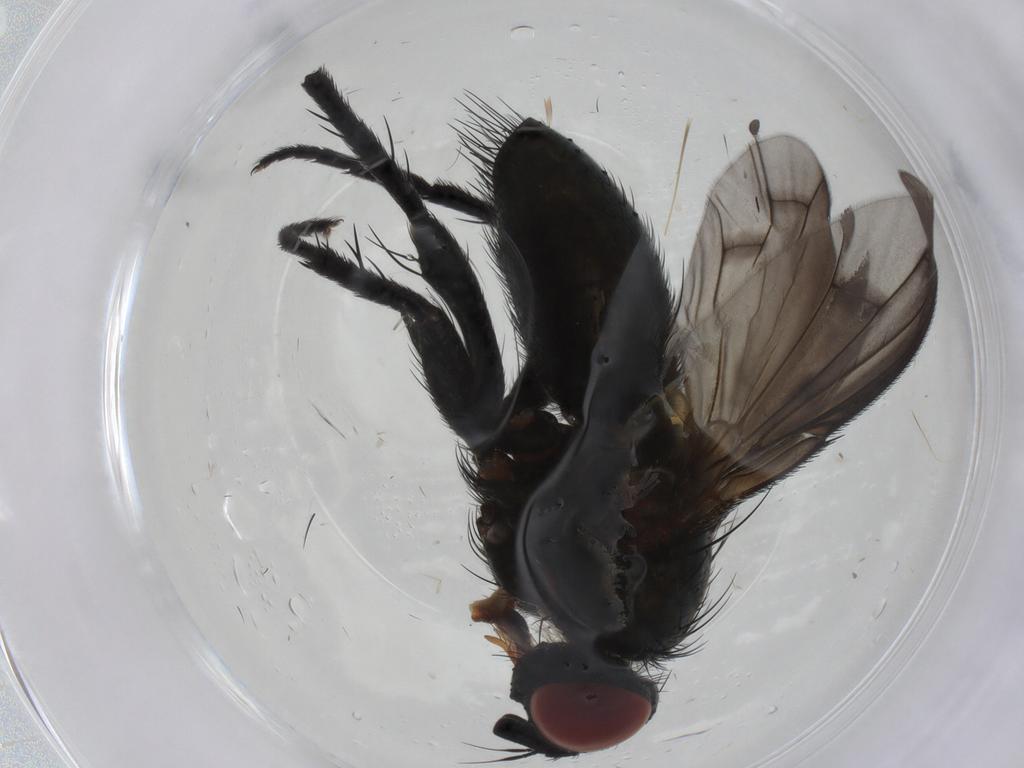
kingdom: Animalia
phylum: Arthropoda
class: Insecta
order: Diptera
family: Tachinidae
